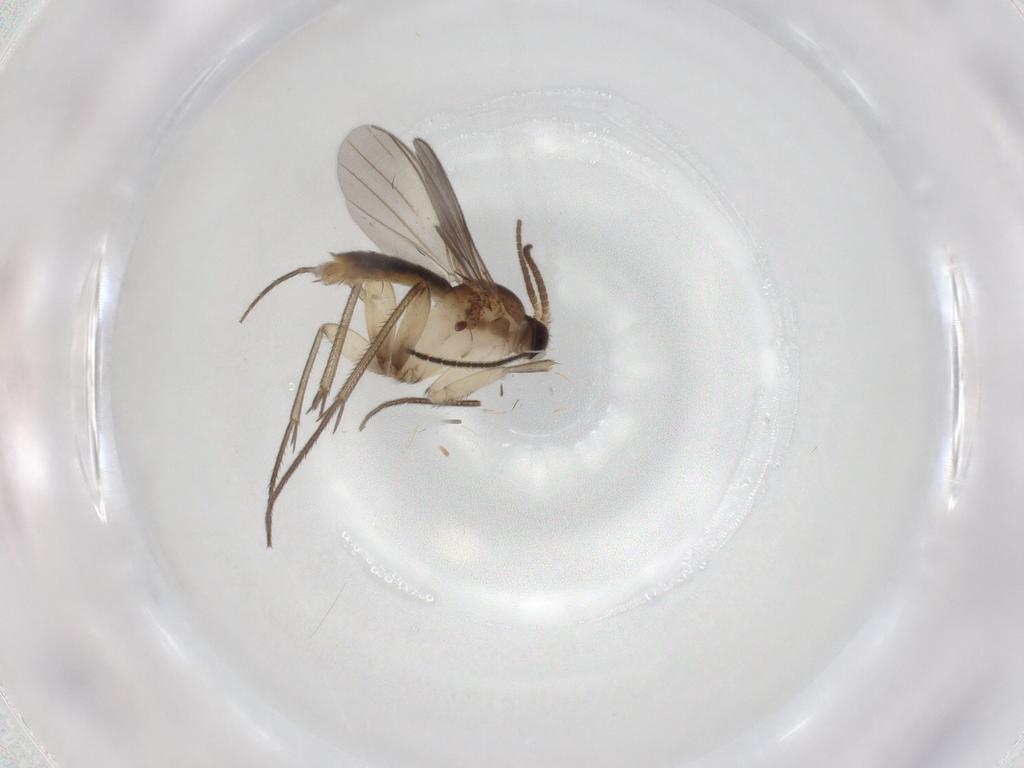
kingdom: Animalia
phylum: Arthropoda
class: Insecta
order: Diptera
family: Mycetophilidae
